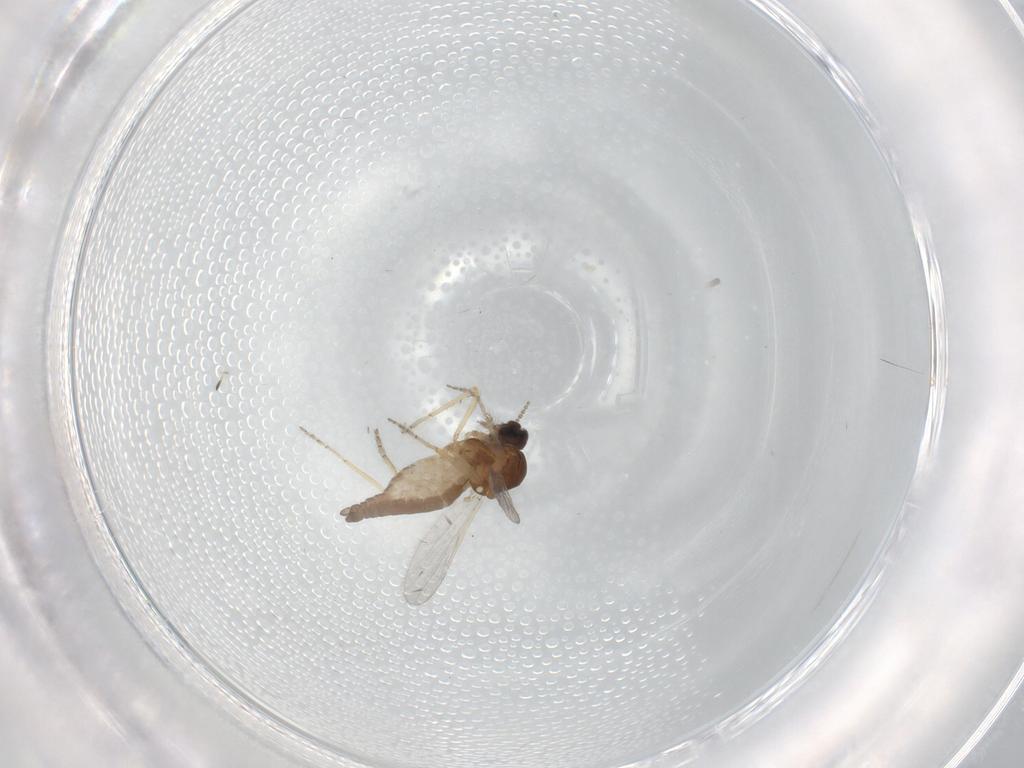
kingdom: Animalia
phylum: Arthropoda
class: Insecta
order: Diptera
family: Ceratopogonidae
